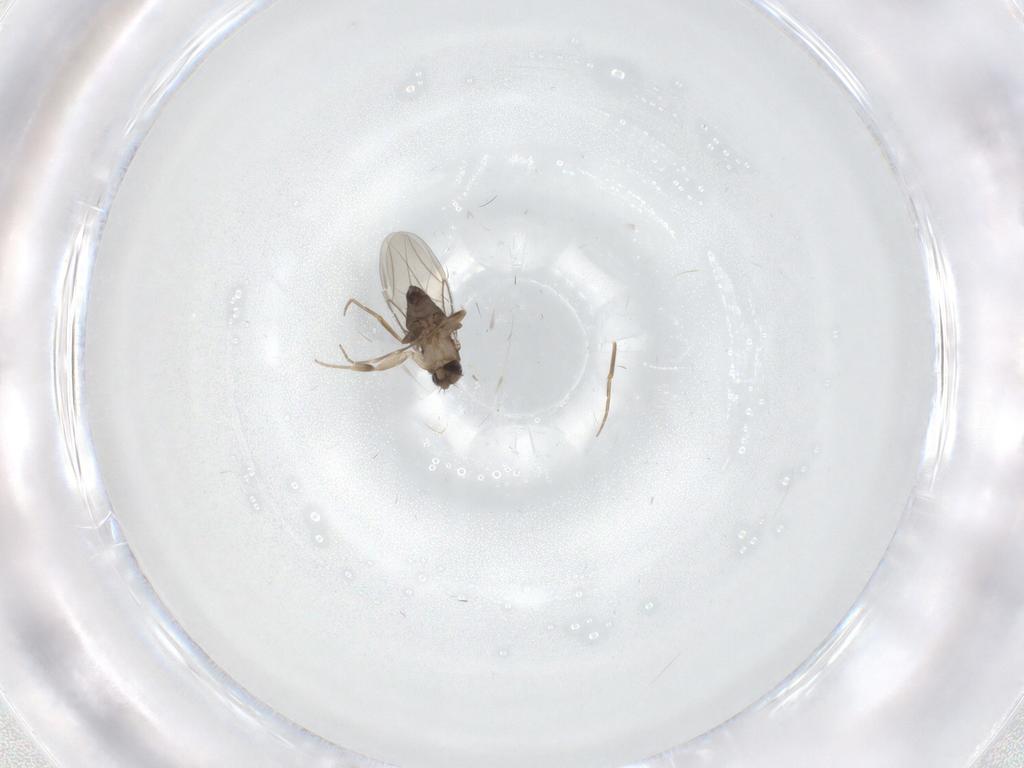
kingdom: Animalia
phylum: Arthropoda
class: Insecta
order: Diptera
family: Phoridae
